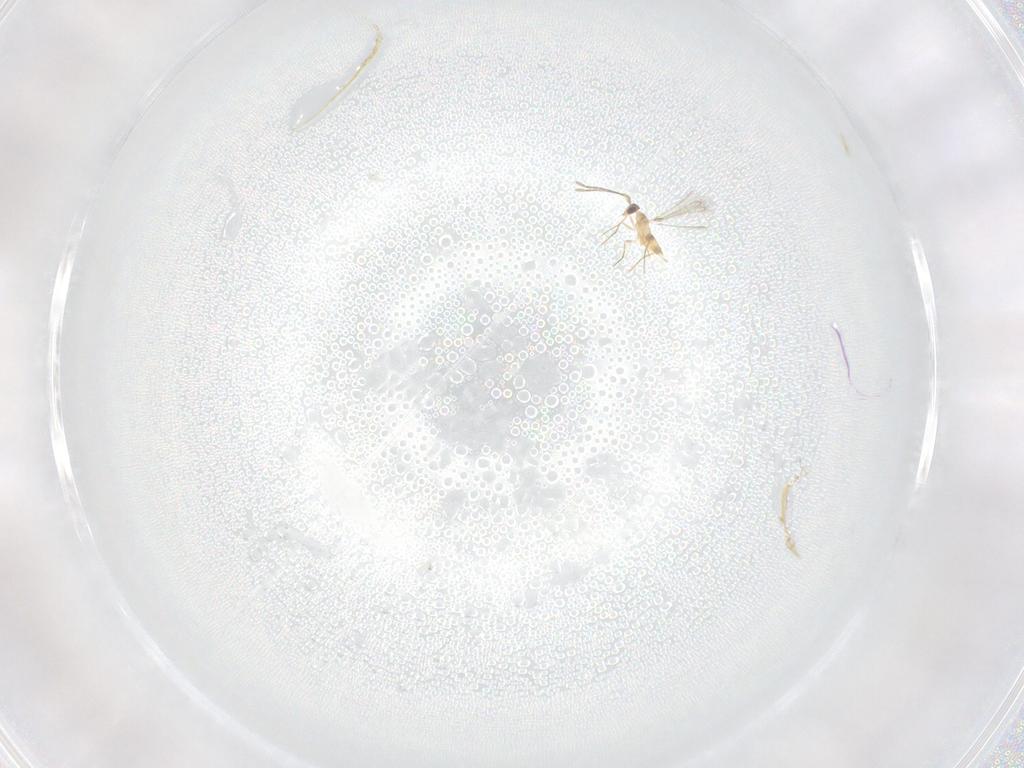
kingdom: Animalia
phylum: Arthropoda
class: Insecta
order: Hymenoptera
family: Mymaridae
